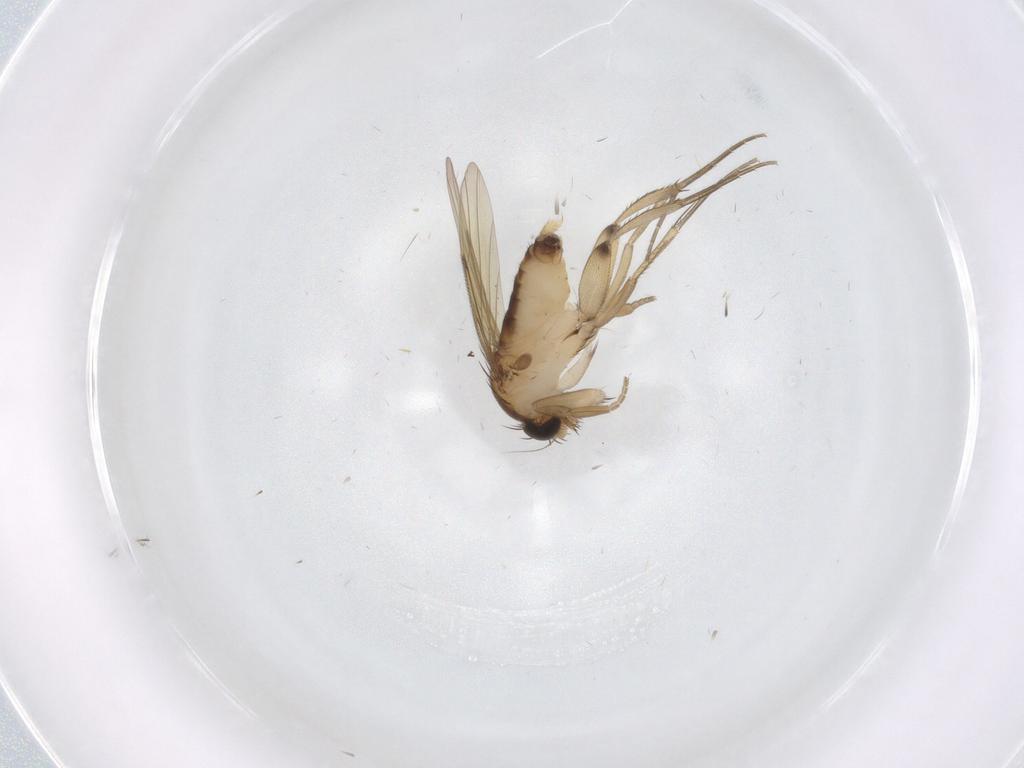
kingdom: Animalia
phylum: Arthropoda
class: Insecta
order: Diptera
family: Phoridae
